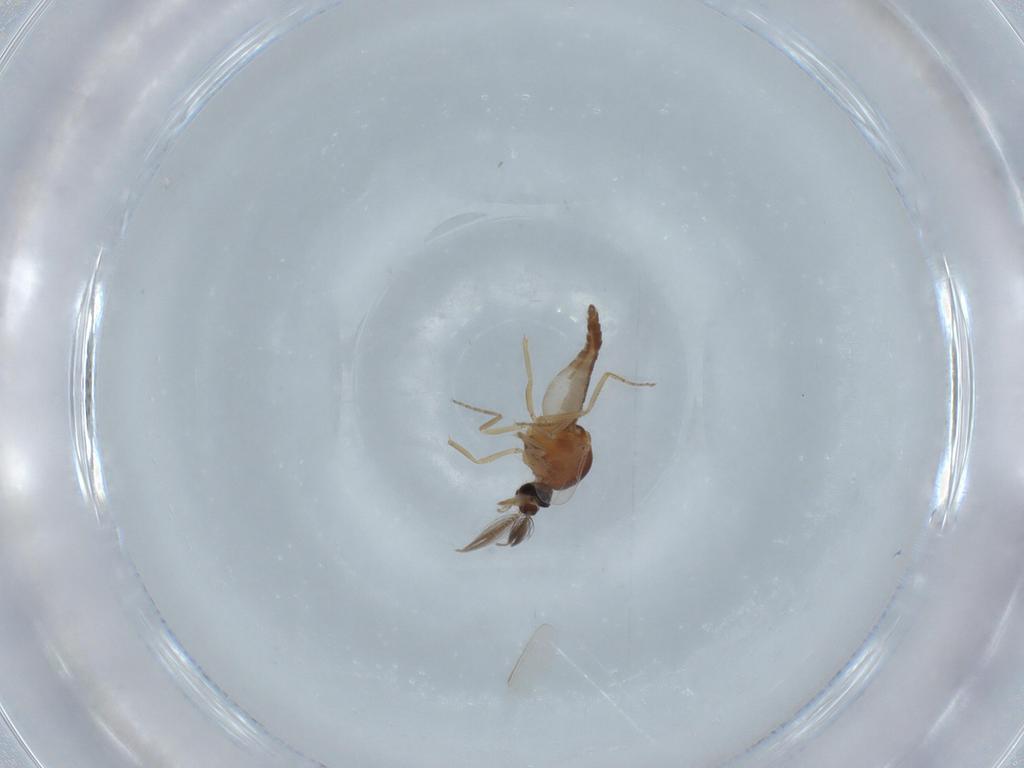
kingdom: Animalia
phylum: Arthropoda
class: Insecta
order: Diptera
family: Ceratopogonidae
